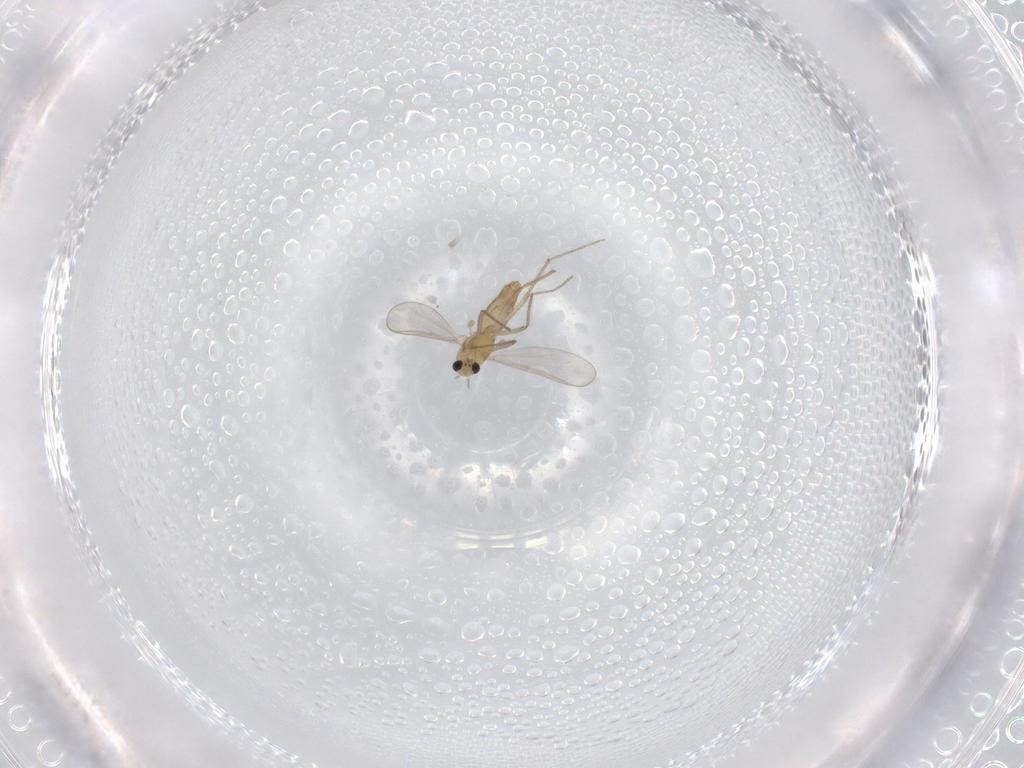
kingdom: Animalia
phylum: Arthropoda
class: Insecta
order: Diptera
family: Chironomidae
